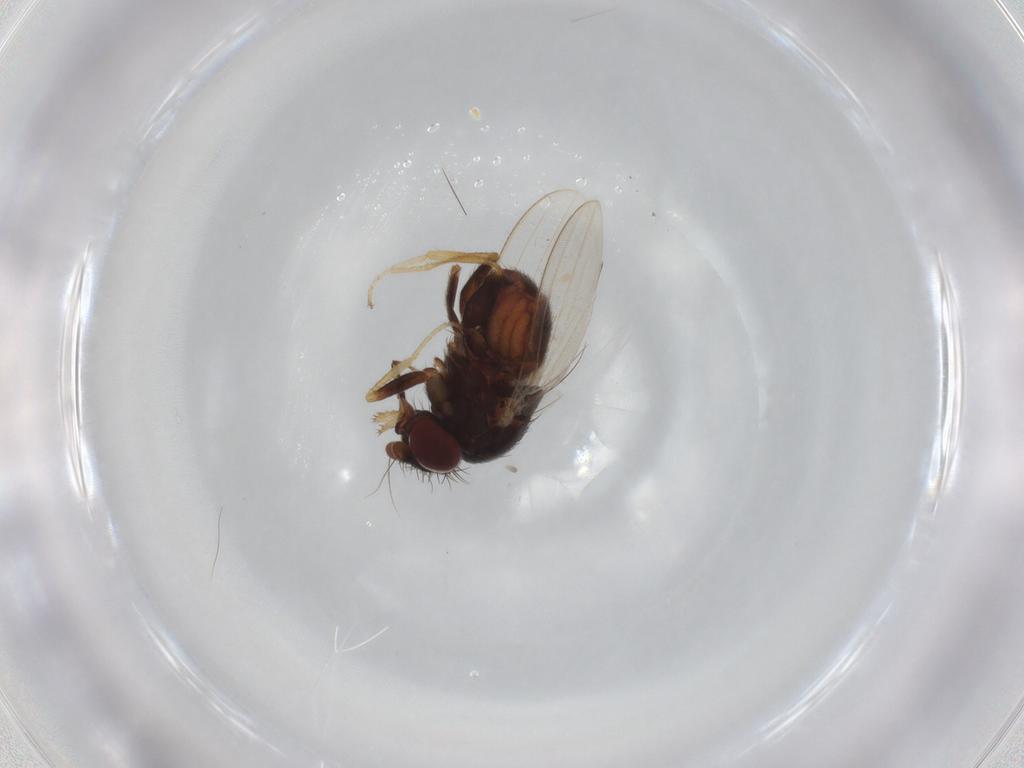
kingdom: Animalia
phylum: Arthropoda
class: Insecta
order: Diptera
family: Milichiidae
